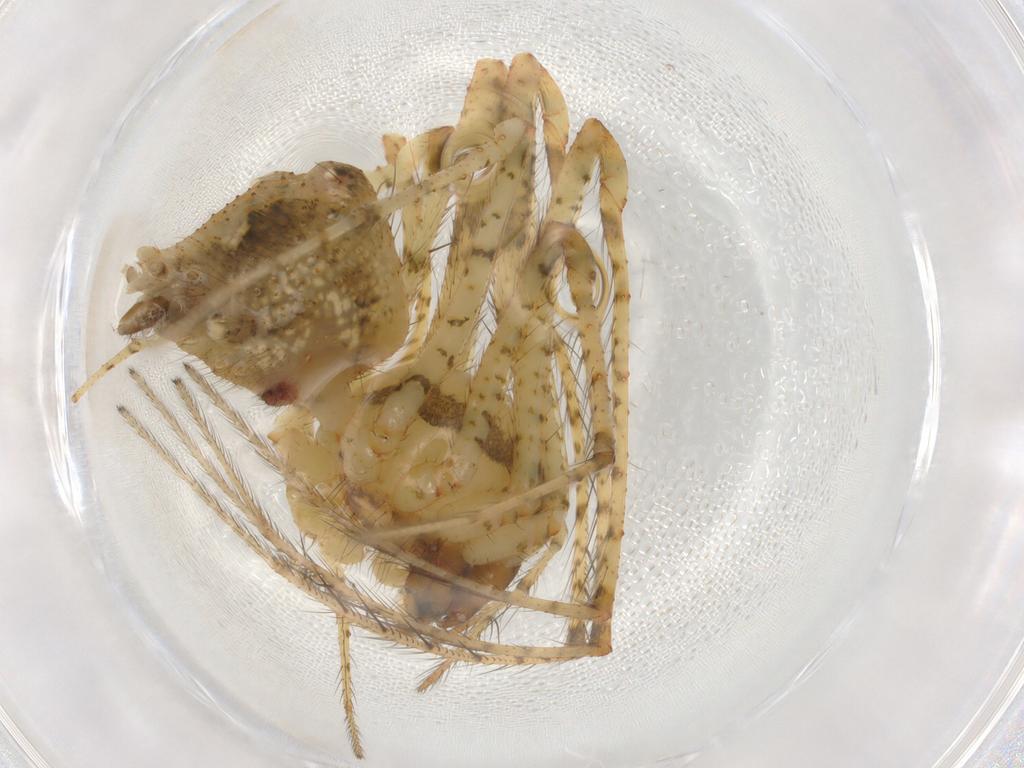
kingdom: Animalia
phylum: Arthropoda
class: Arachnida
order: Araneae
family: Mimetidae
